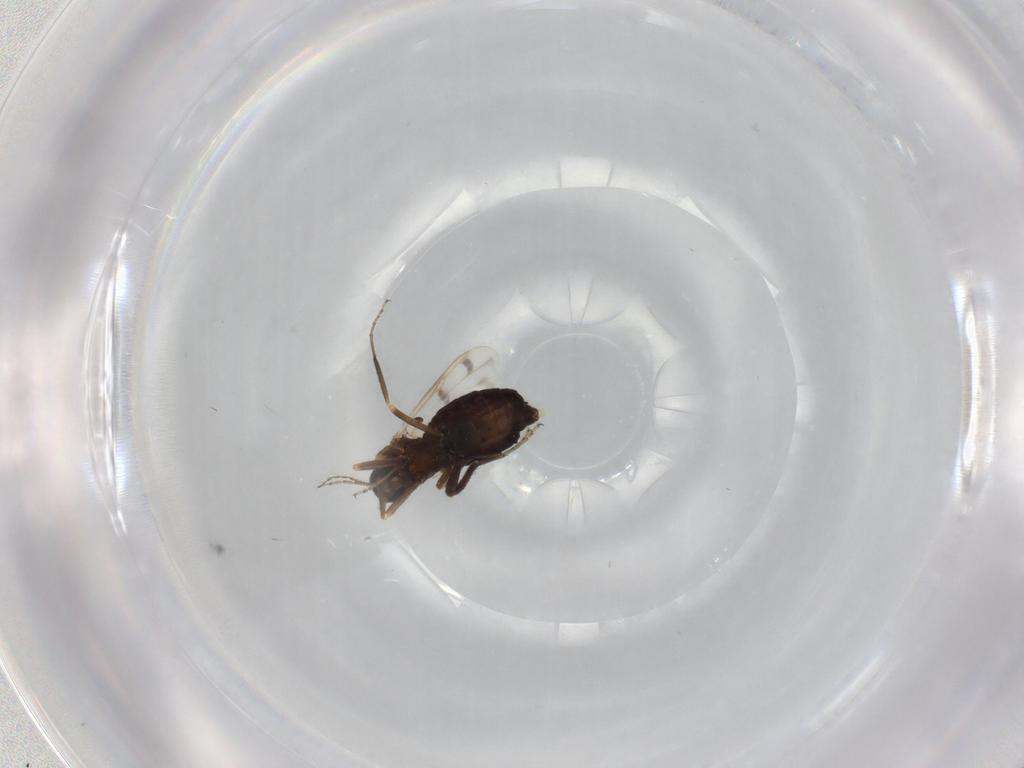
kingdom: Animalia
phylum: Arthropoda
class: Insecta
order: Diptera
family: Ceratopogonidae
